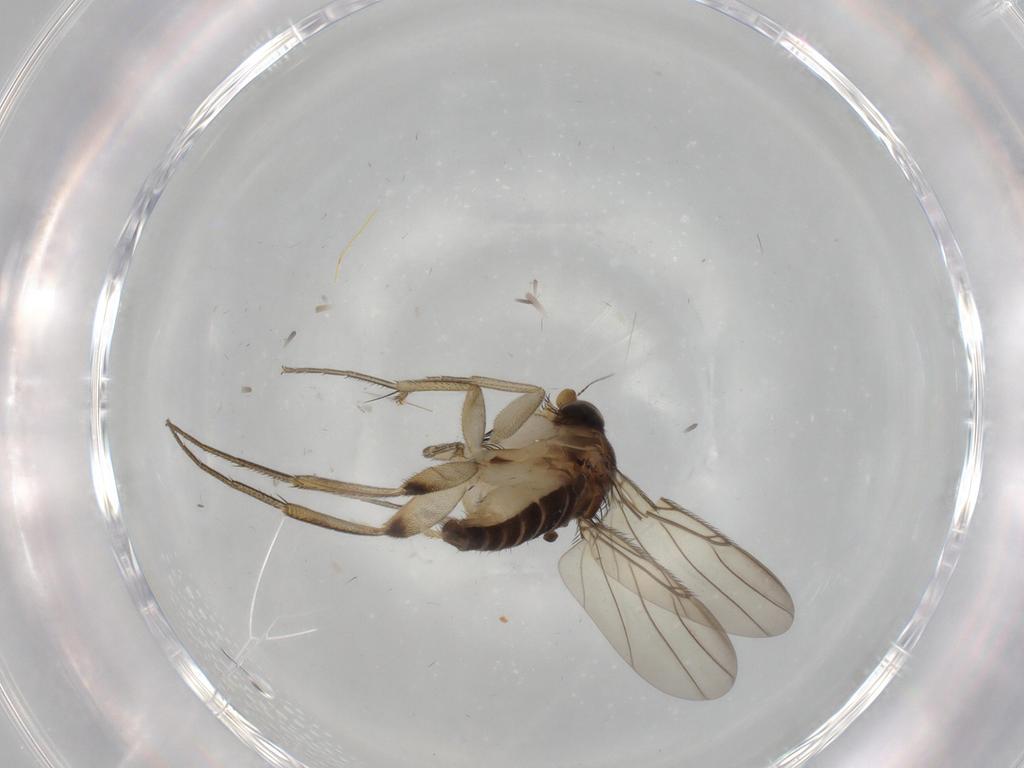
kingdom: Animalia
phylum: Arthropoda
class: Insecta
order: Diptera
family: Phoridae
